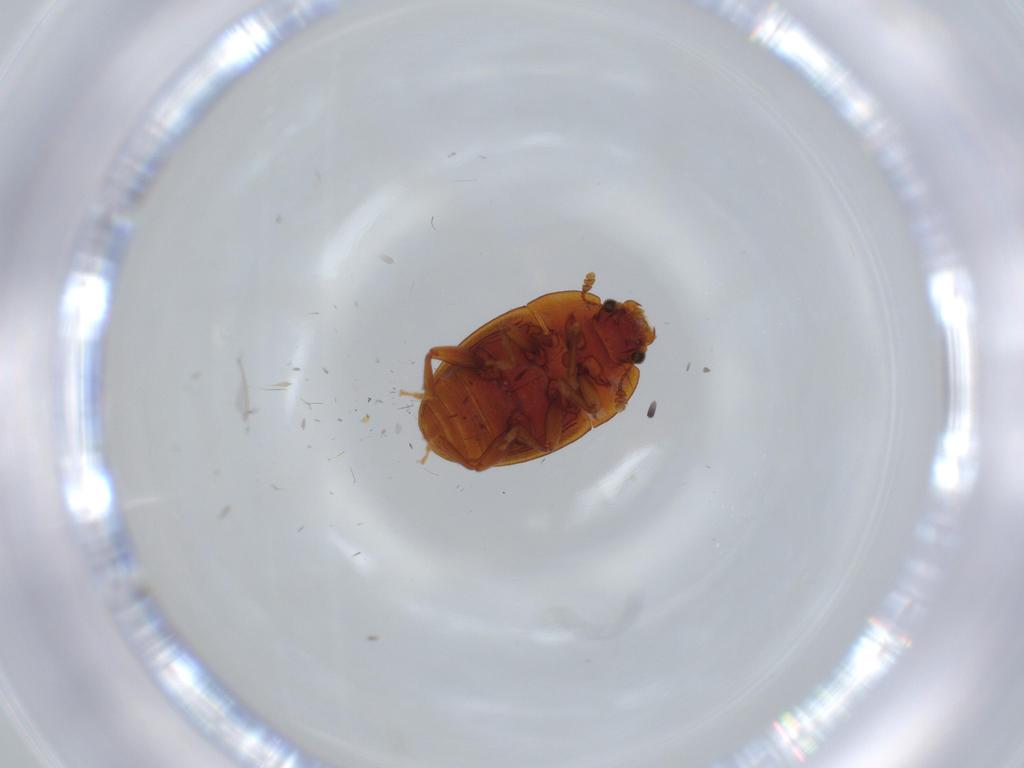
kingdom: Animalia
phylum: Arthropoda
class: Insecta
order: Coleoptera
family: Nitidulidae
